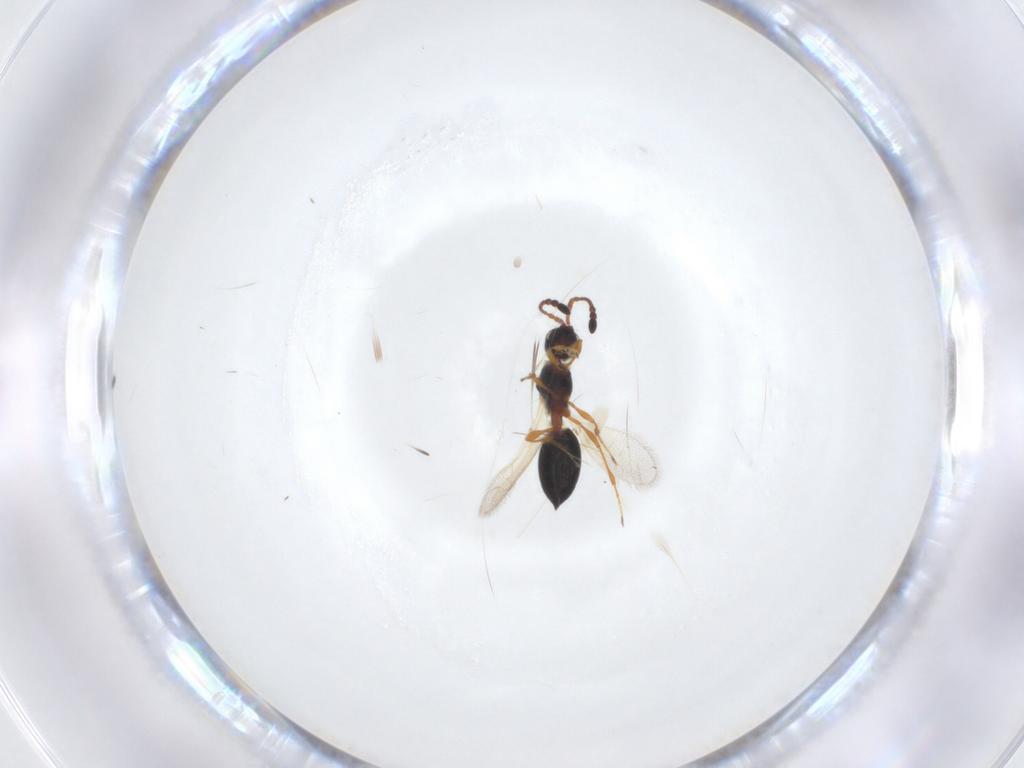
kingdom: Animalia
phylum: Arthropoda
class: Insecta
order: Hymenoptera
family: Diapriidae
